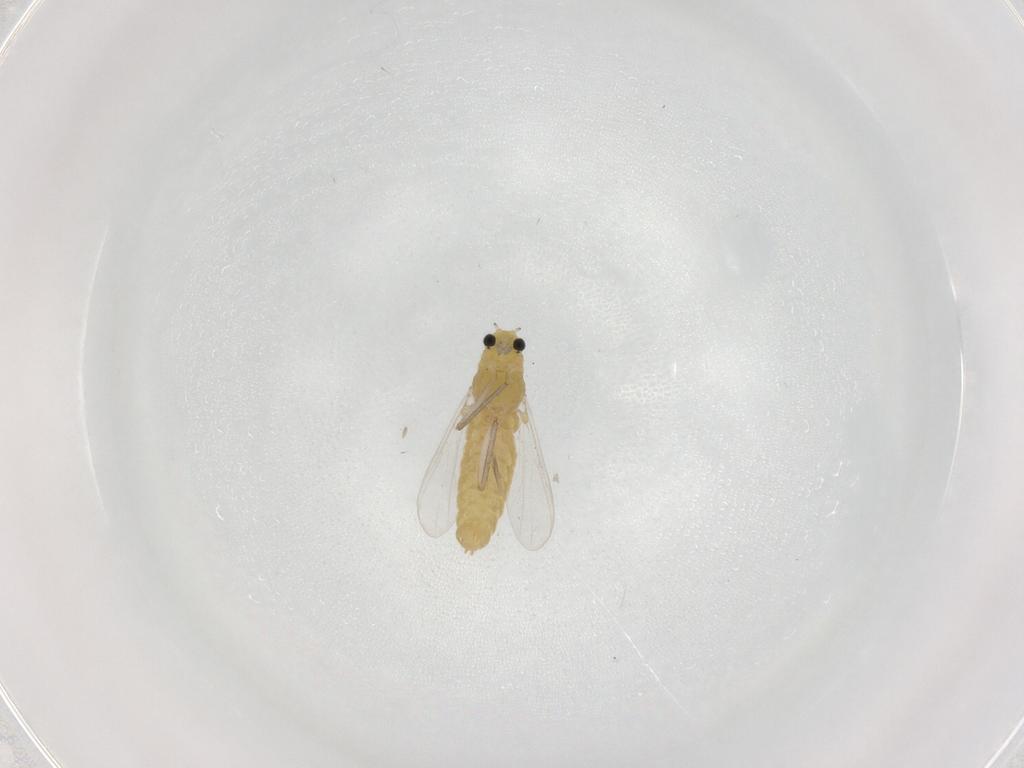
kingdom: Animalia
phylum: Arthropoda
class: Insecta
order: Diptera
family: Chironomidae
